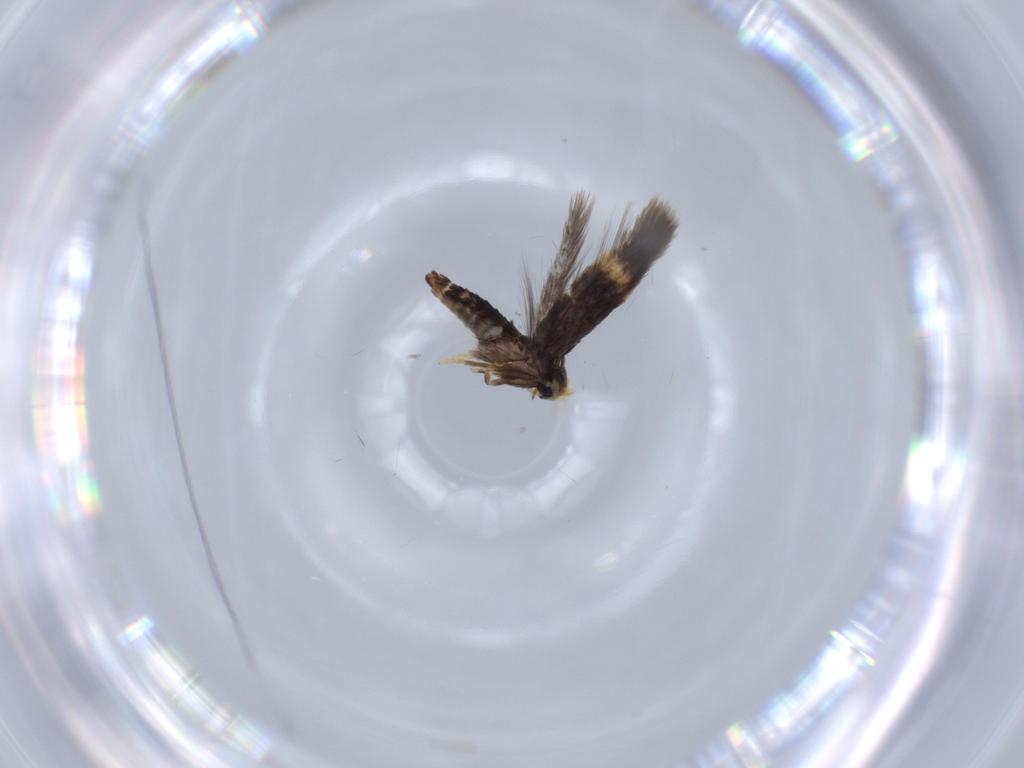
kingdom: Animalia
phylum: Arthropoda
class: Insecta
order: Lepidoptera
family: Nepticulidae
